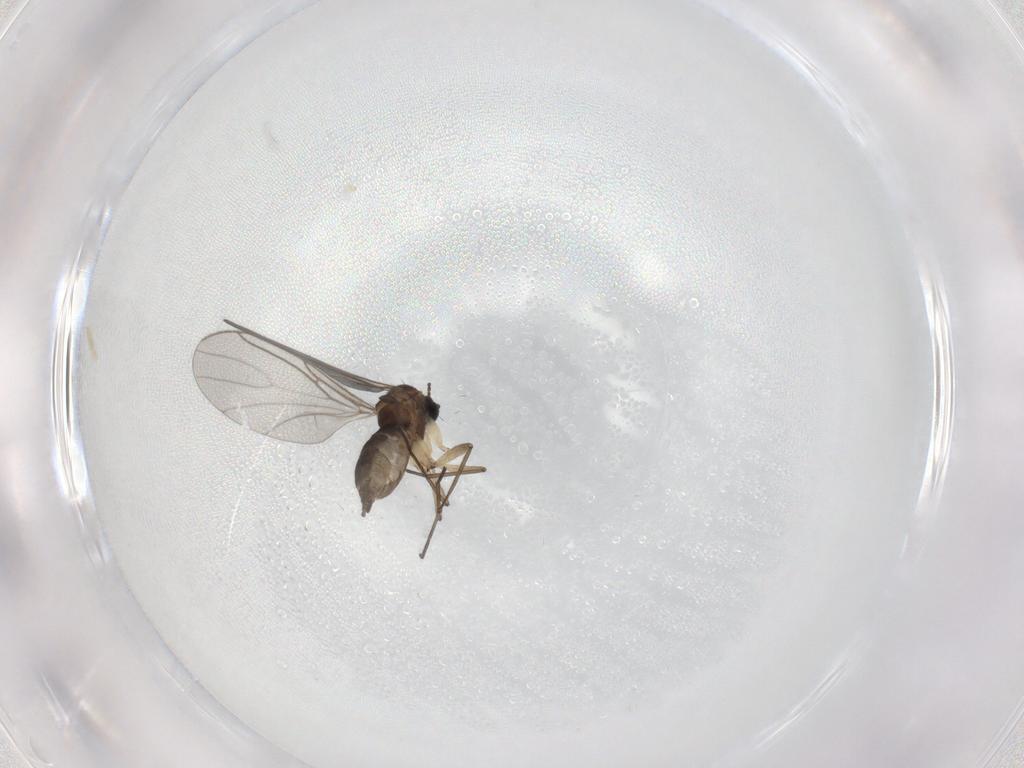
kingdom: Animalia
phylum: Arthropoda
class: Insecta
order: Diptera
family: Sciaridae
